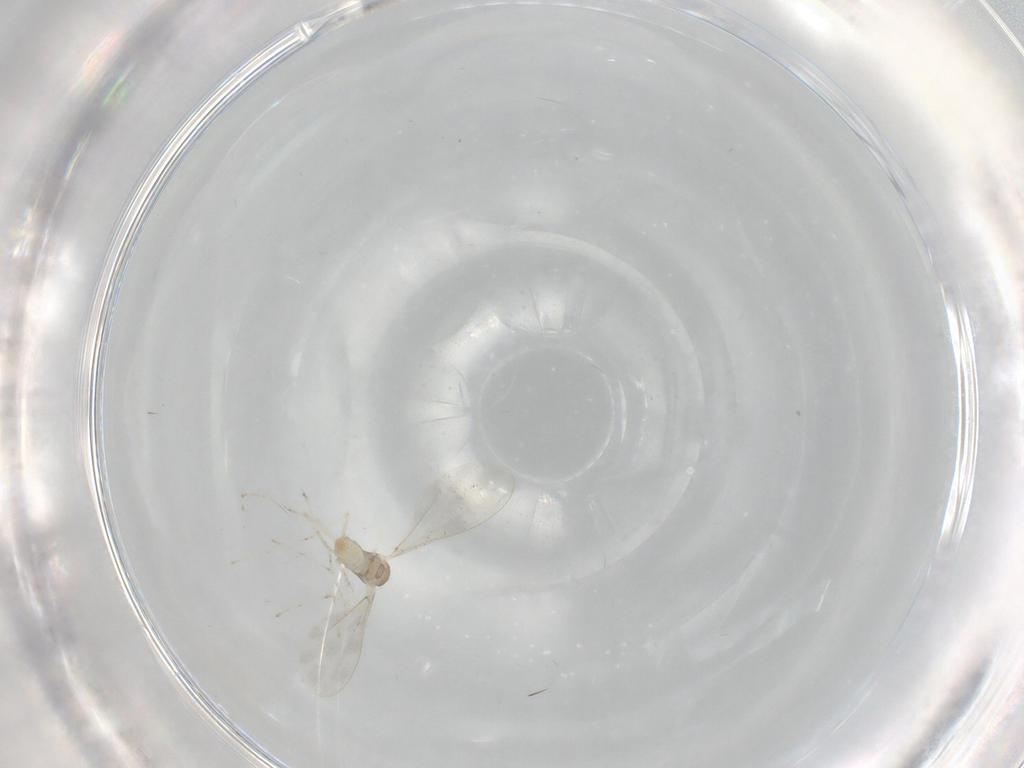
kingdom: Animalia
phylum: Arthropoda
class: Insecta
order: Diptera
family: Cecidomyiidae
